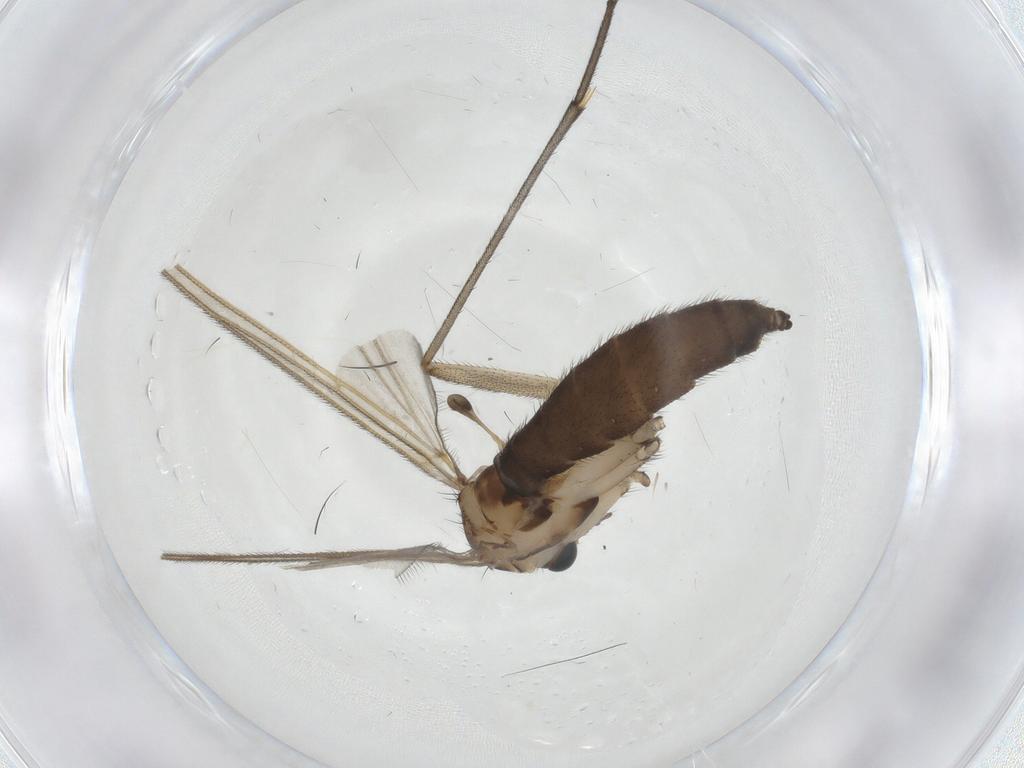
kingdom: Animalia
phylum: Arthropoda
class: Insecta
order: Diptera
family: Sciaridae
